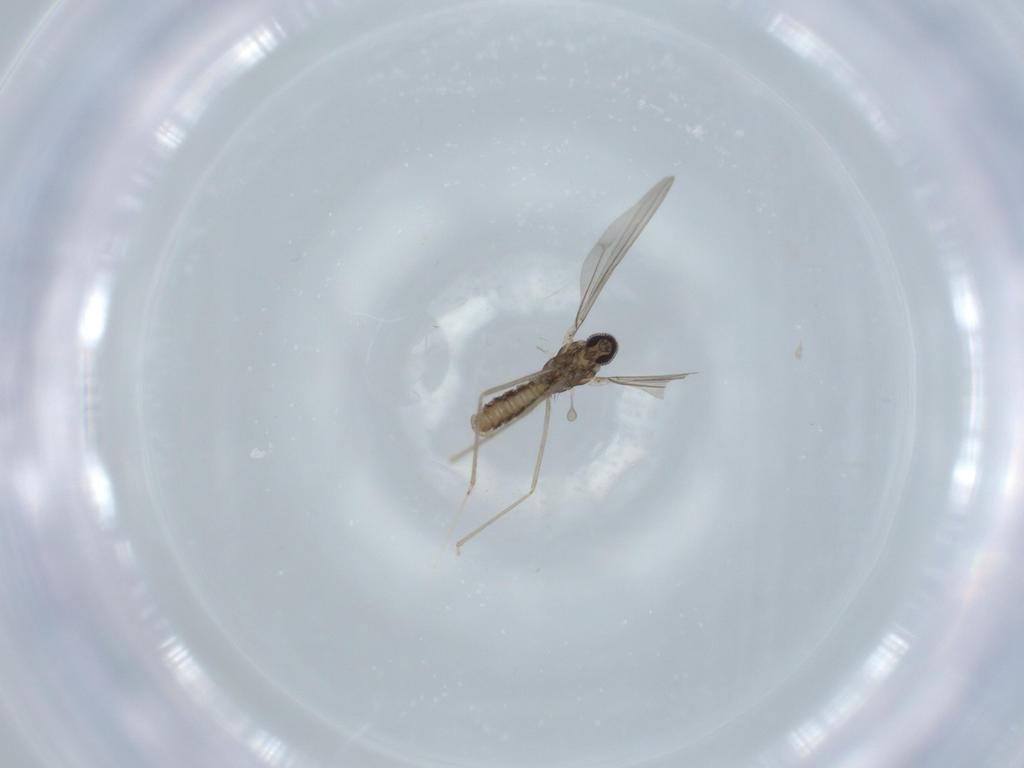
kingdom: Animalia
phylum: Arthropoda
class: Insecta
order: Diptera
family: Cecidomyiidae
